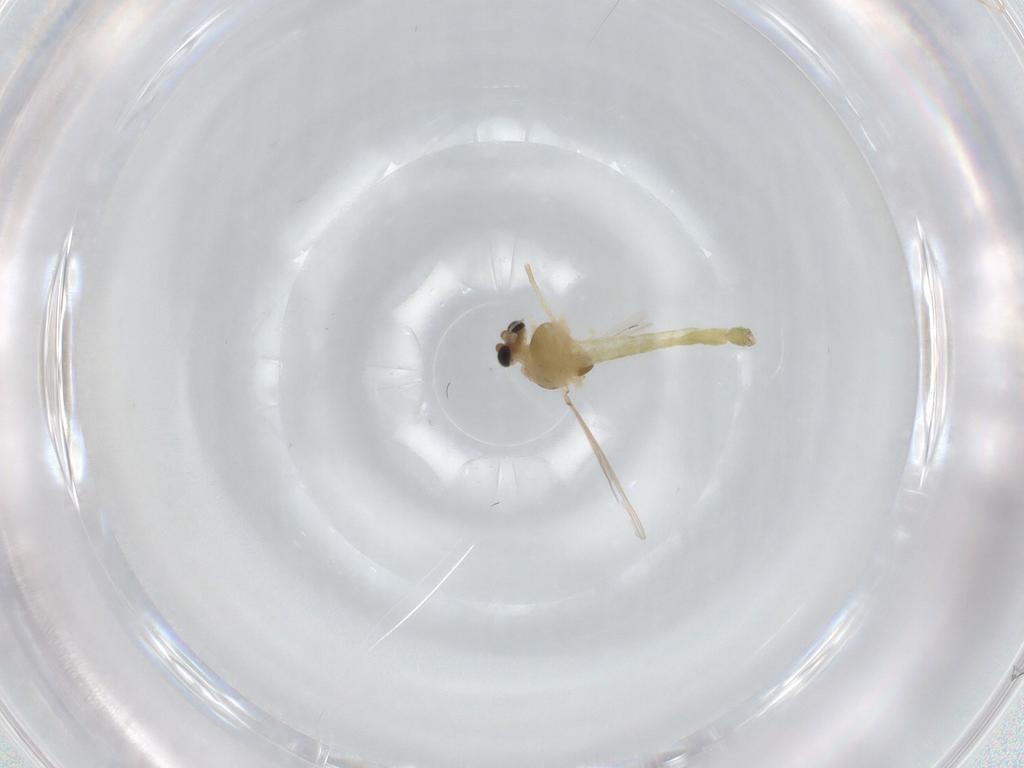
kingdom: Animalia
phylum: Arthropoda
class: Insecta
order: Diptera
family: Chironomidae
